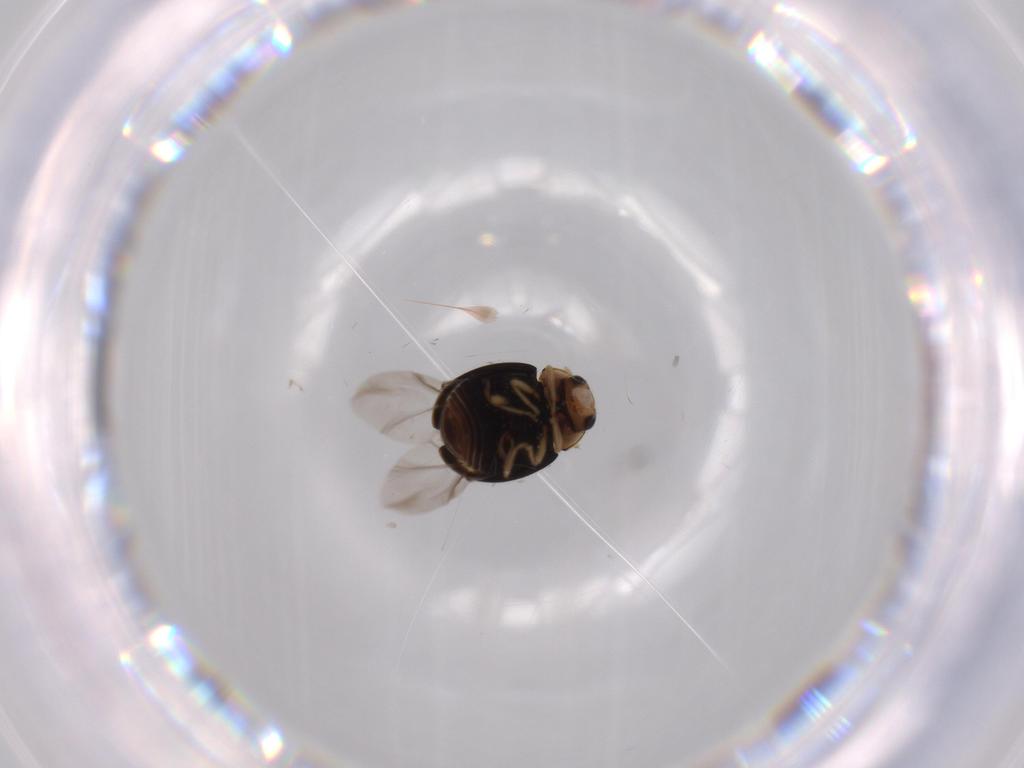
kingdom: Animalia
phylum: Arthropoda
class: Insecta
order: Coleoptera
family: Coccinellidae
